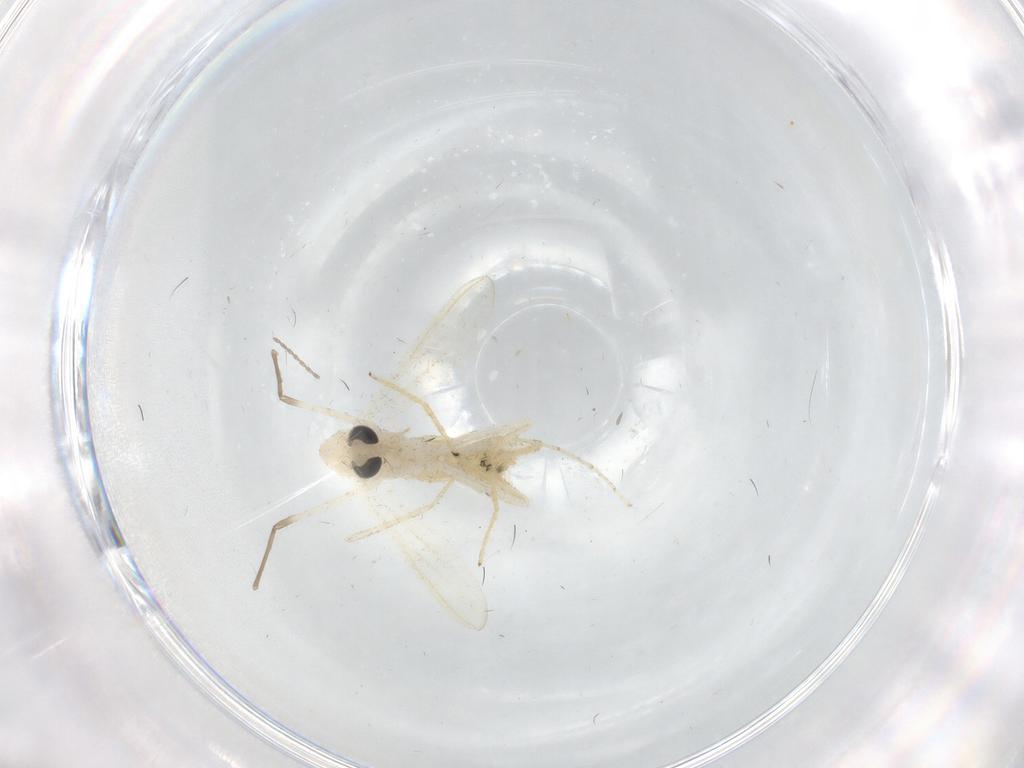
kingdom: Animalia
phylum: Arthropoda
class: Insecta
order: Diptera
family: Chironomidae
